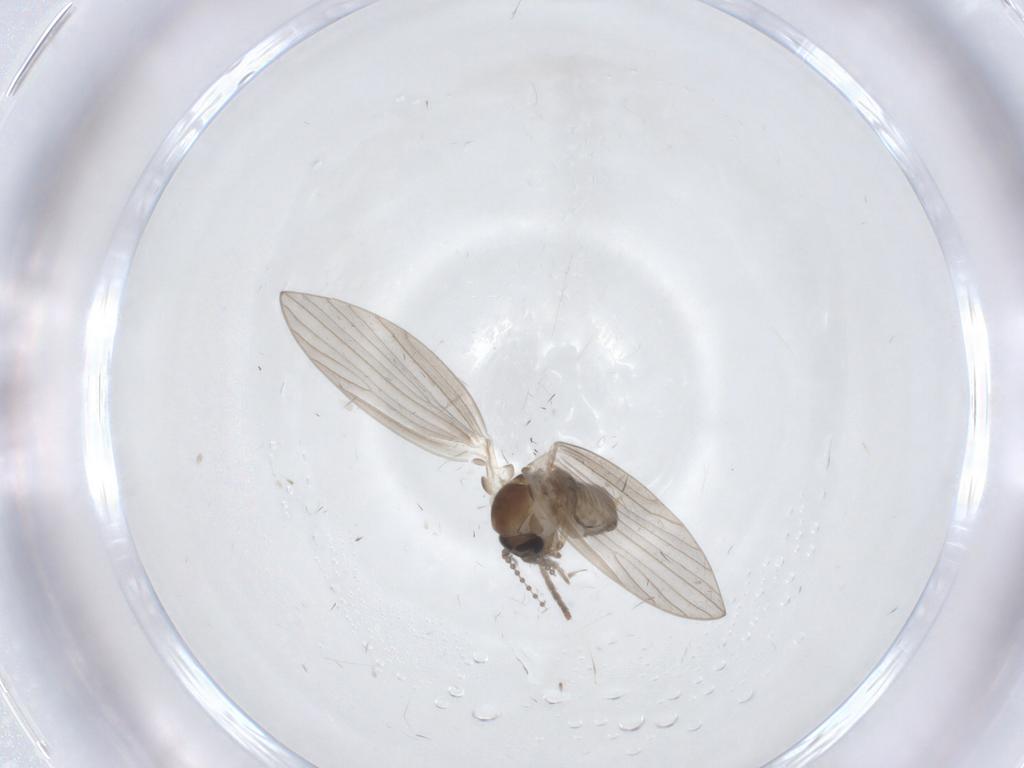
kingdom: Animalia
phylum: Arthropoda
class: Insecta
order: Diptera
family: Psychodidae
